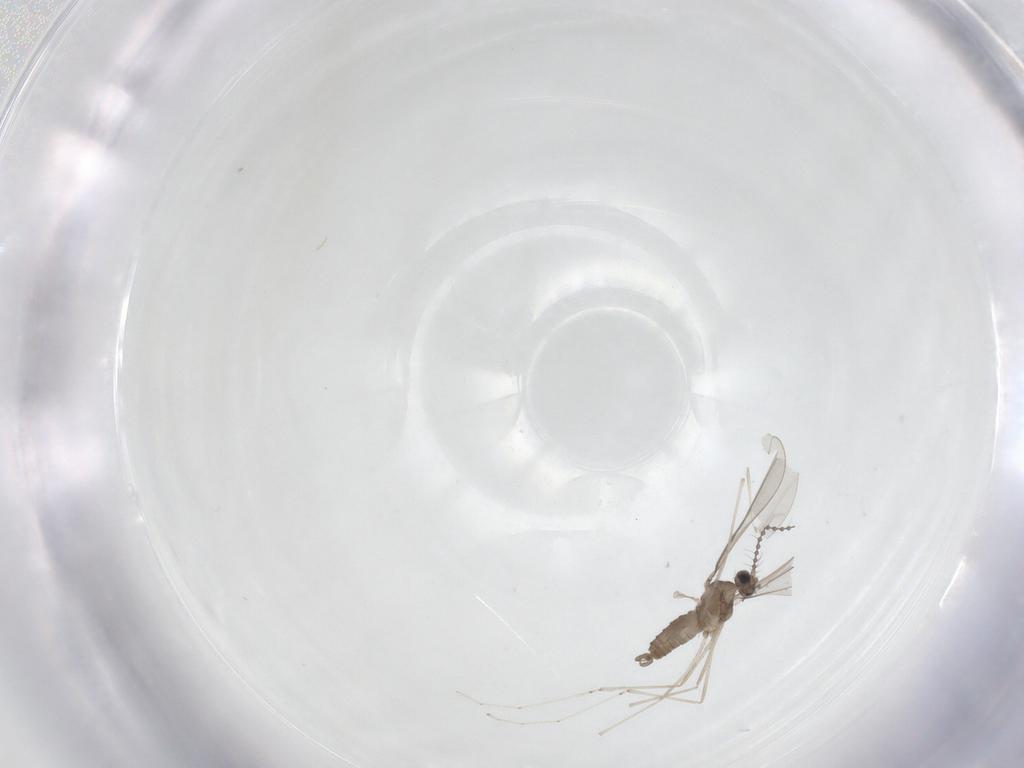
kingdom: Animalia
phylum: Arthropoda
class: Insecta
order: Diptera
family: Cecidomyiidae
